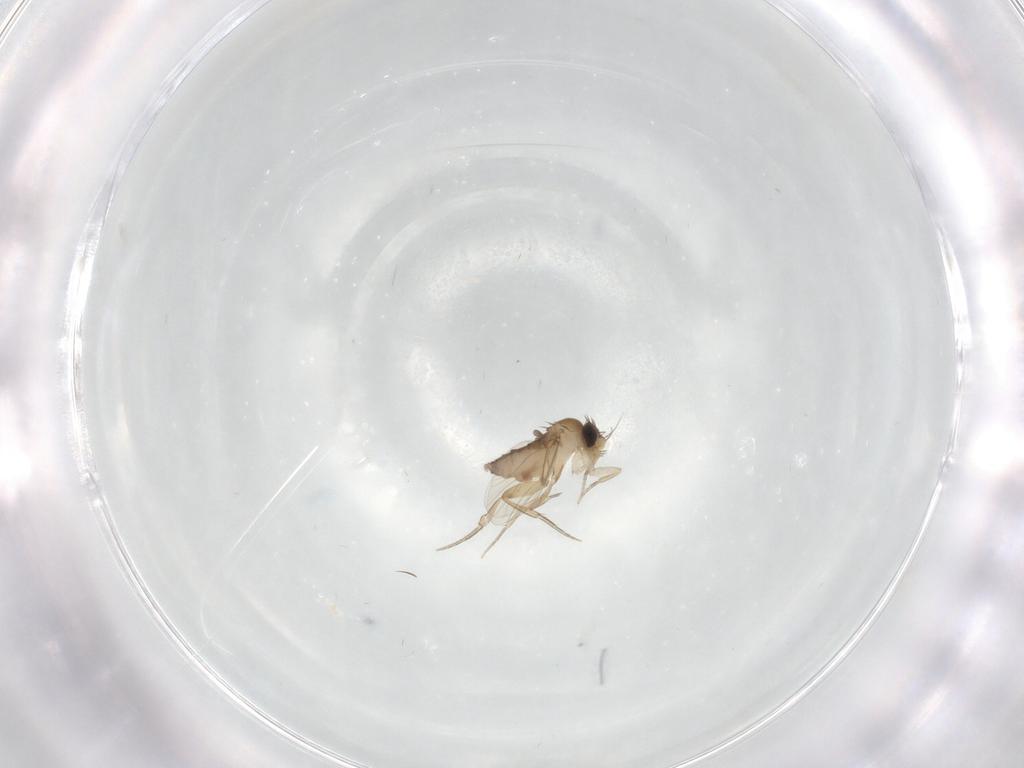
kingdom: Animalia
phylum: Arthropoda
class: Insecta
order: Diptera
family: Phoridae
